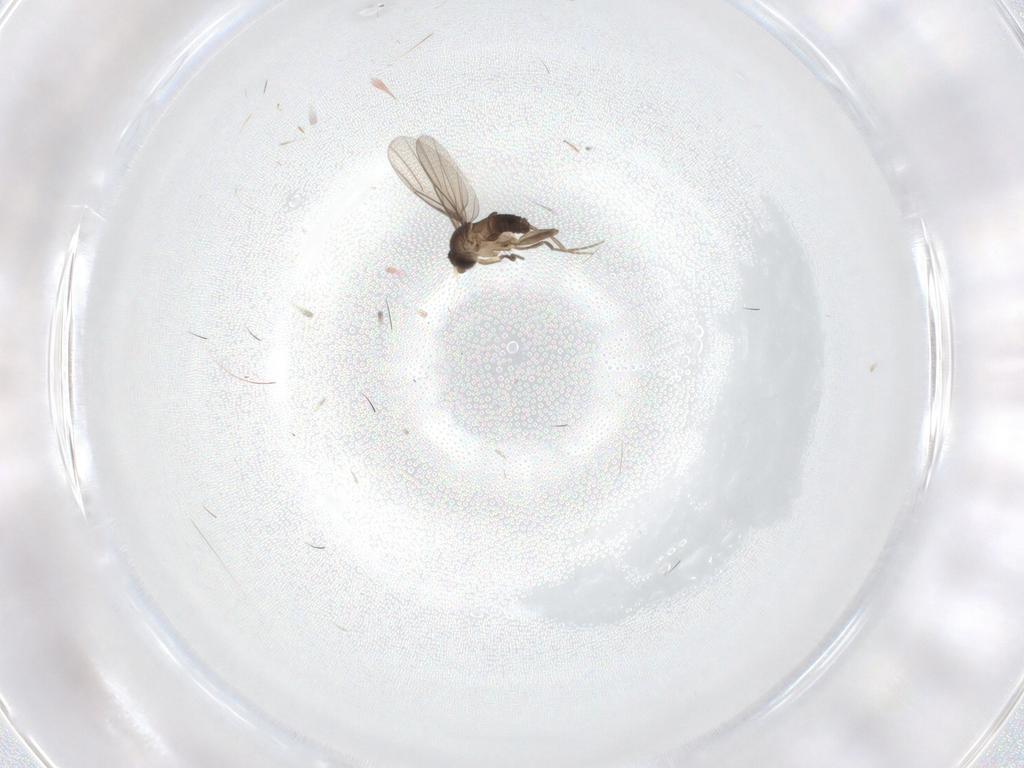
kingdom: Animalia
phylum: Arthropoda
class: Insecta
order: Diptera
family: Phoridae
